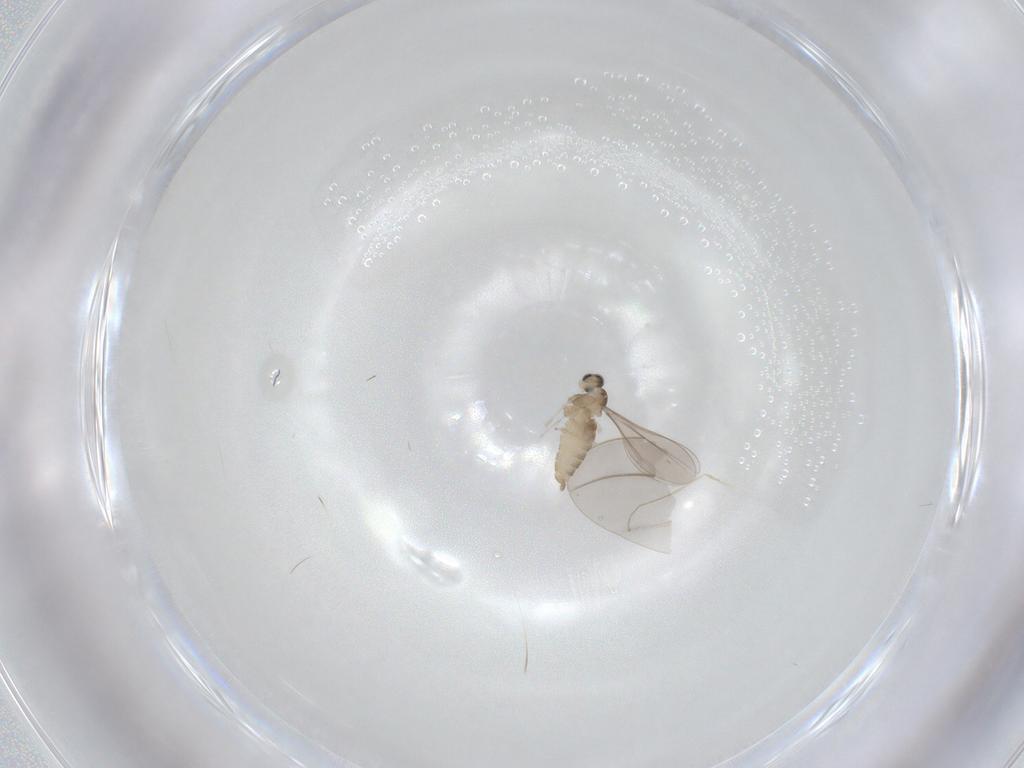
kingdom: Animalia
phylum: Arthropoda
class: Insecta
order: Diptera
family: Cecidomyiidae
